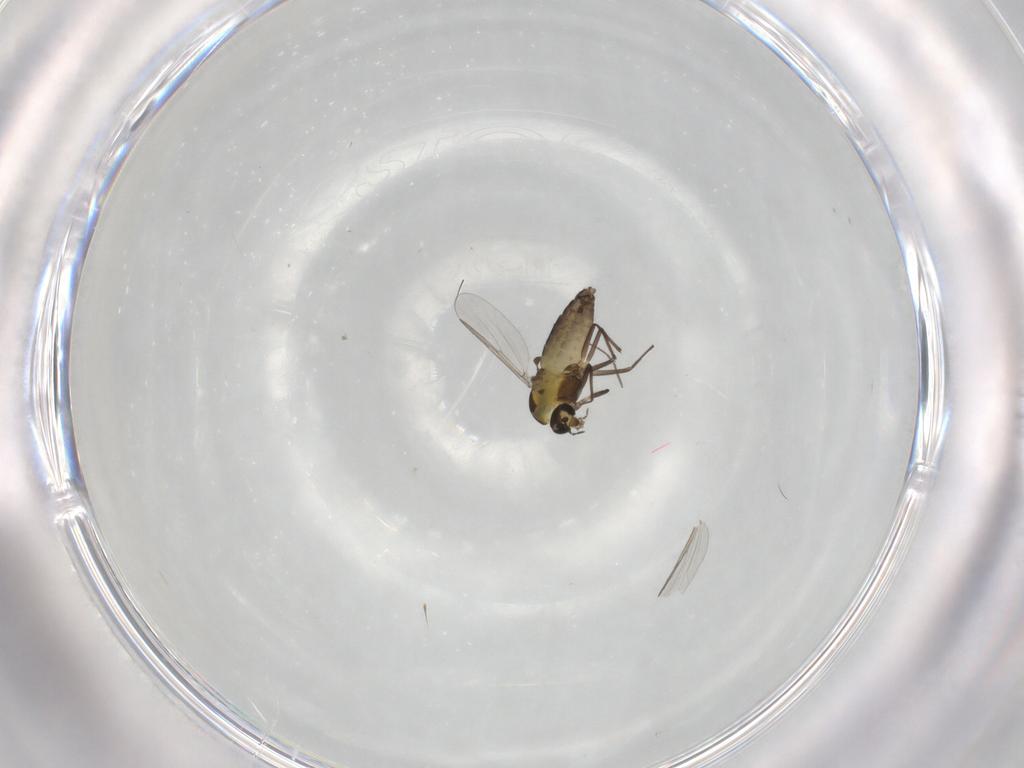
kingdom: Animalia
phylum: Arthropoda
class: Insecta
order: Diptera
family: Chironomidae
